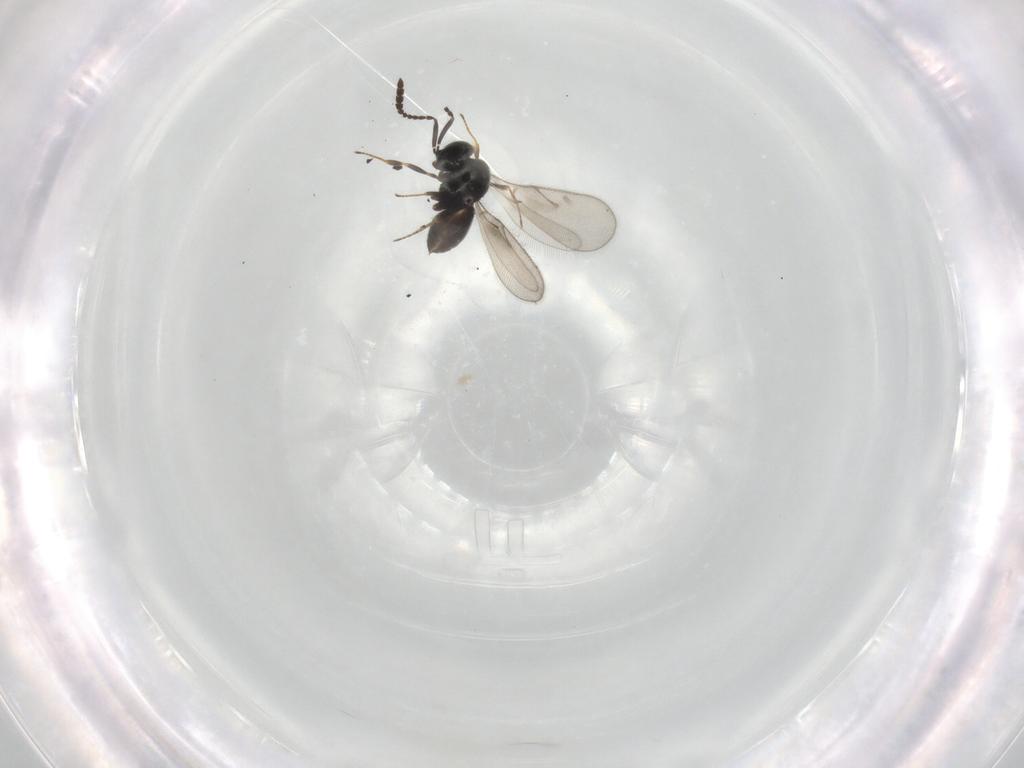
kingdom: Animalia
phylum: Arthropoda
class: Insecta
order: Hymenoptera
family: Scelionidae
